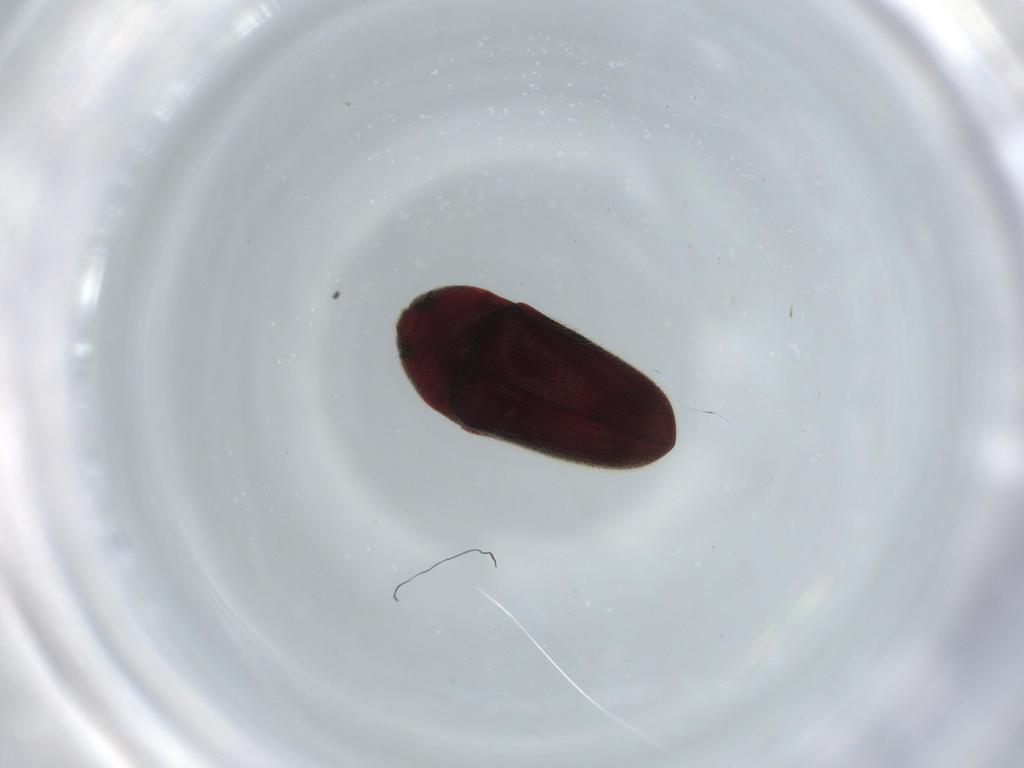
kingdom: Animalia
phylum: Arthropoda
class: Insecta
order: Coleoptera
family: Throscidae
